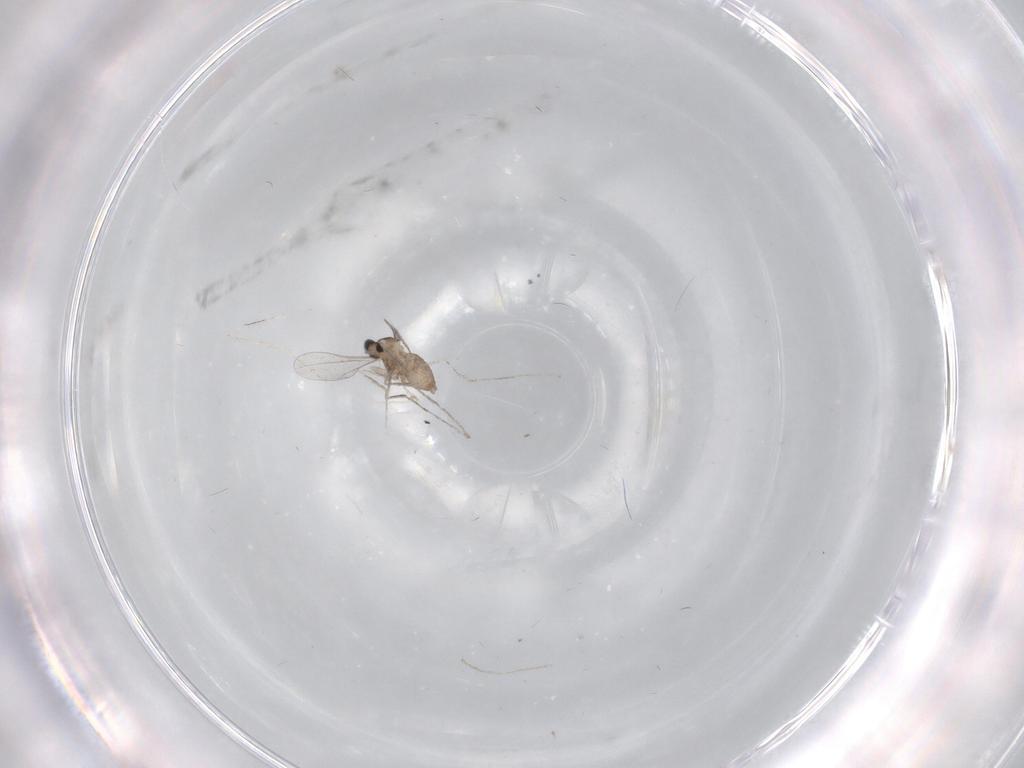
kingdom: Animalia
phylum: Arthropoda
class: Insecta
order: Diptera
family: Cecidomyiidae
